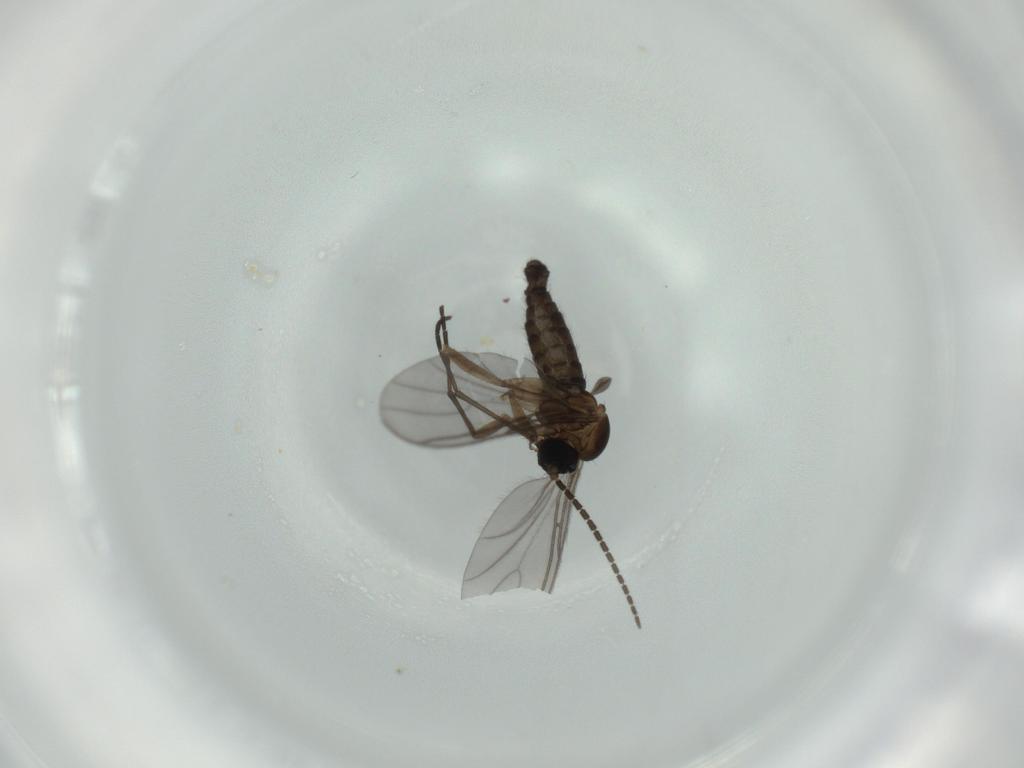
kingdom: Animalia
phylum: Arthropoda
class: Insecta
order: Diptera
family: Sciaridae
